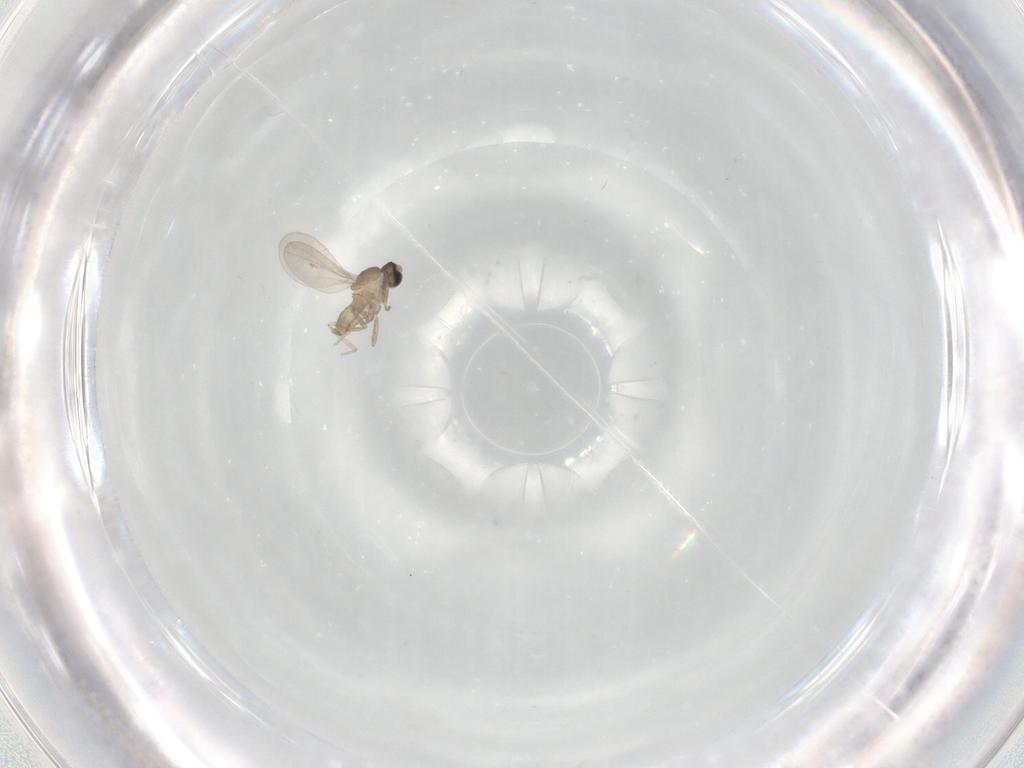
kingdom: Animalia
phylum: Arthropoda
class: Insecta
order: Diptera
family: Cecidomyiidae
